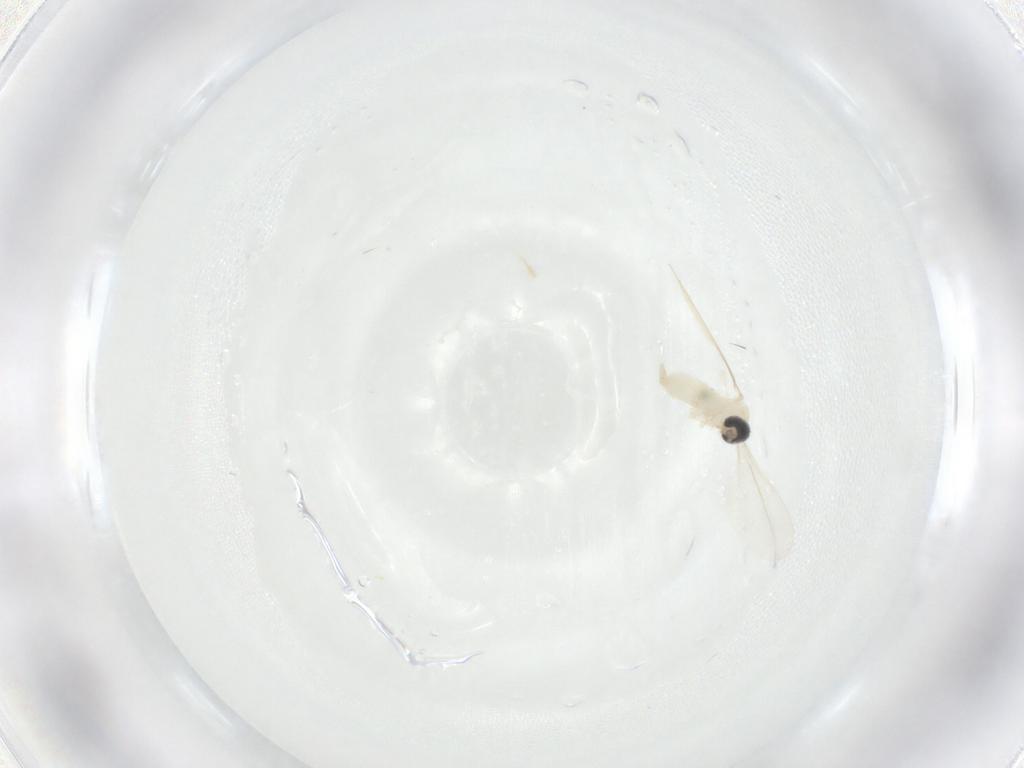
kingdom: Animalia
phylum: Arthropoda
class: Insecta
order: Diptera
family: Cecidomyiidae
